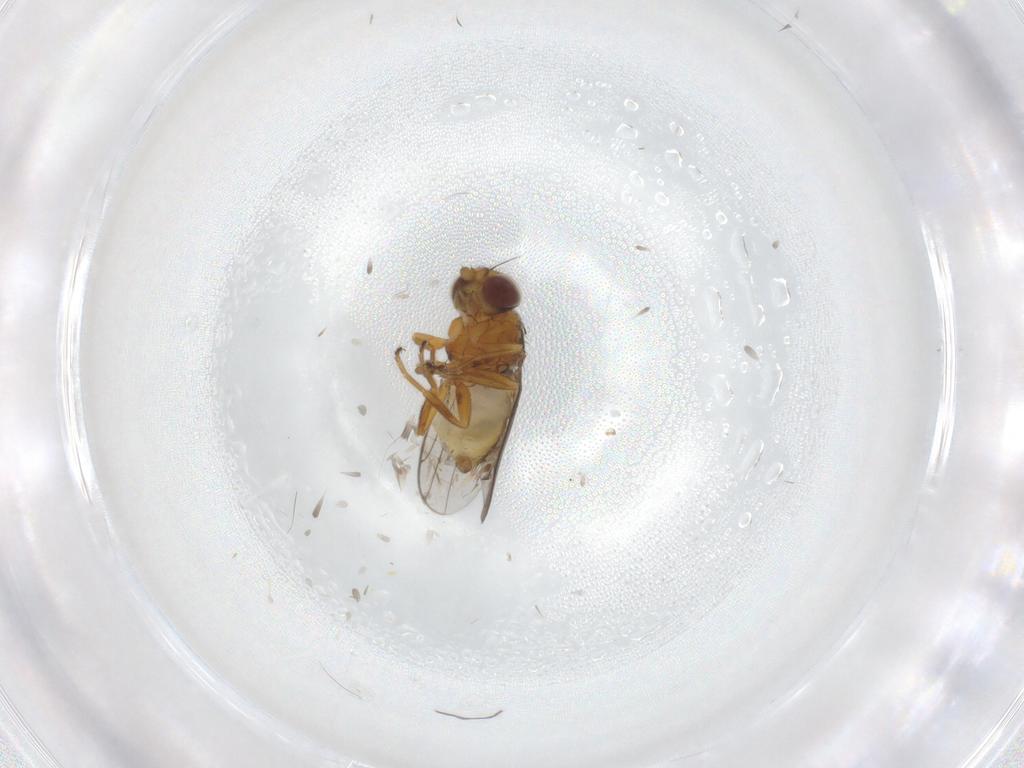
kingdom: Animalia
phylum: Arthropoda
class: Insecta
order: Diptera
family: Chloropidae
